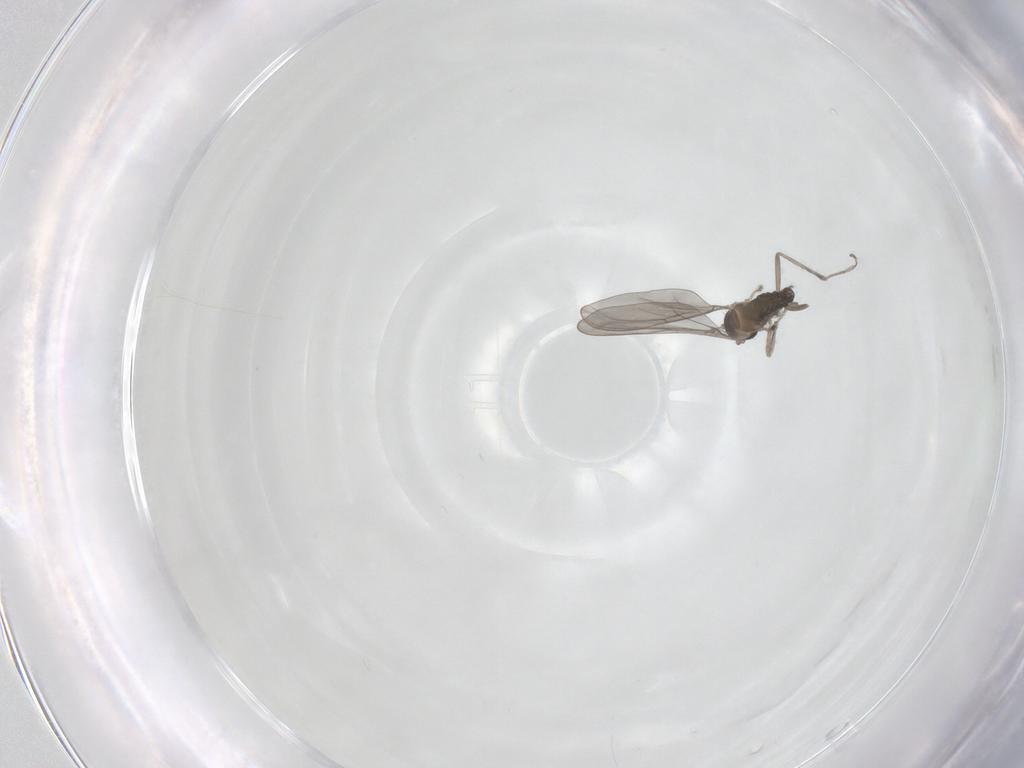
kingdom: Animalia
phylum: Arthropoda
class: Insecta
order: Diptera
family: Cecidomyiidae
